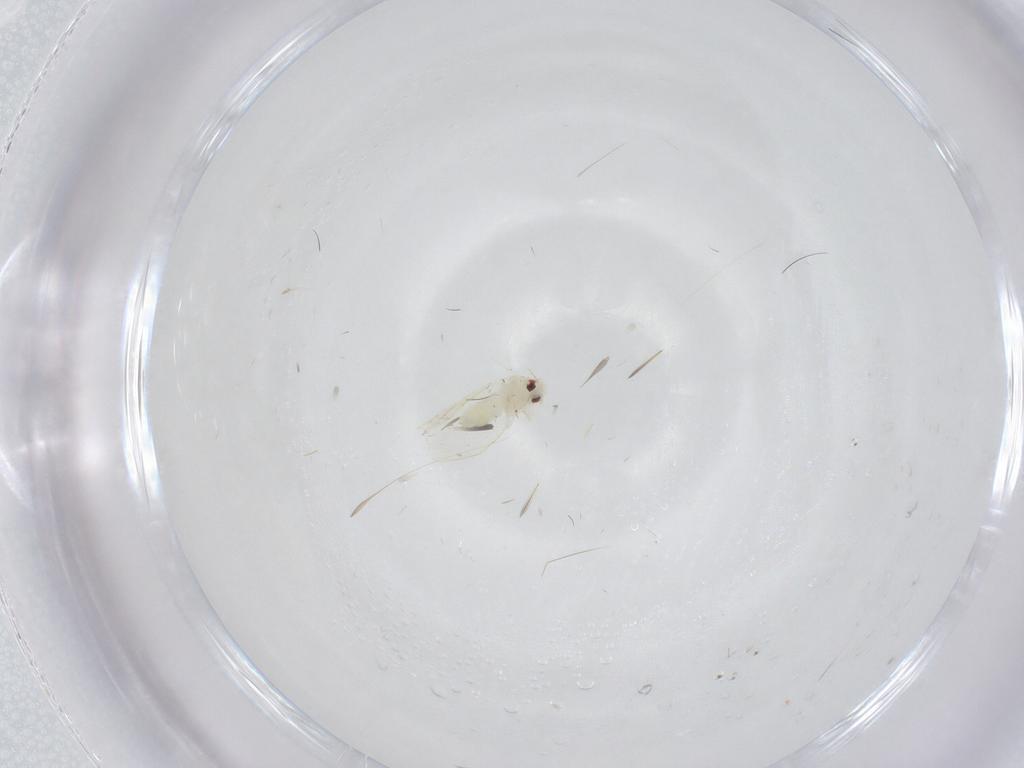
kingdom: Animalia
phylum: Arthropoda
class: Insecta
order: Hemiptera
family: Aleyrodidae
